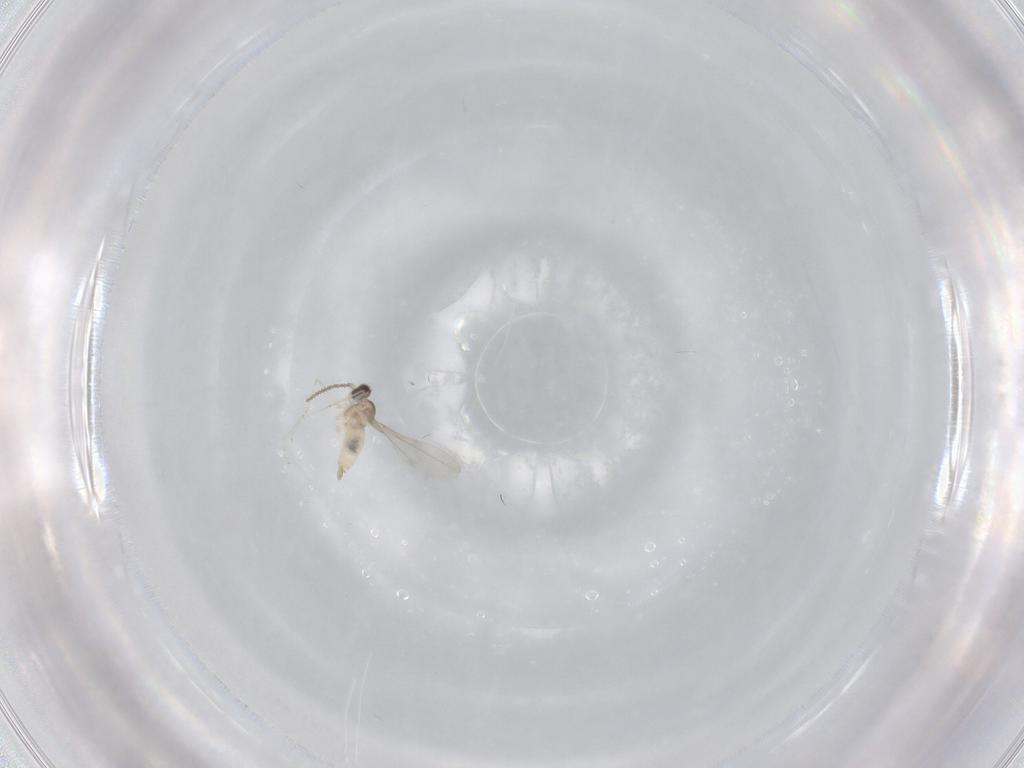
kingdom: Animalia
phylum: Arthropoda
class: Insecta
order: Diptera
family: Cecidomyiidae
